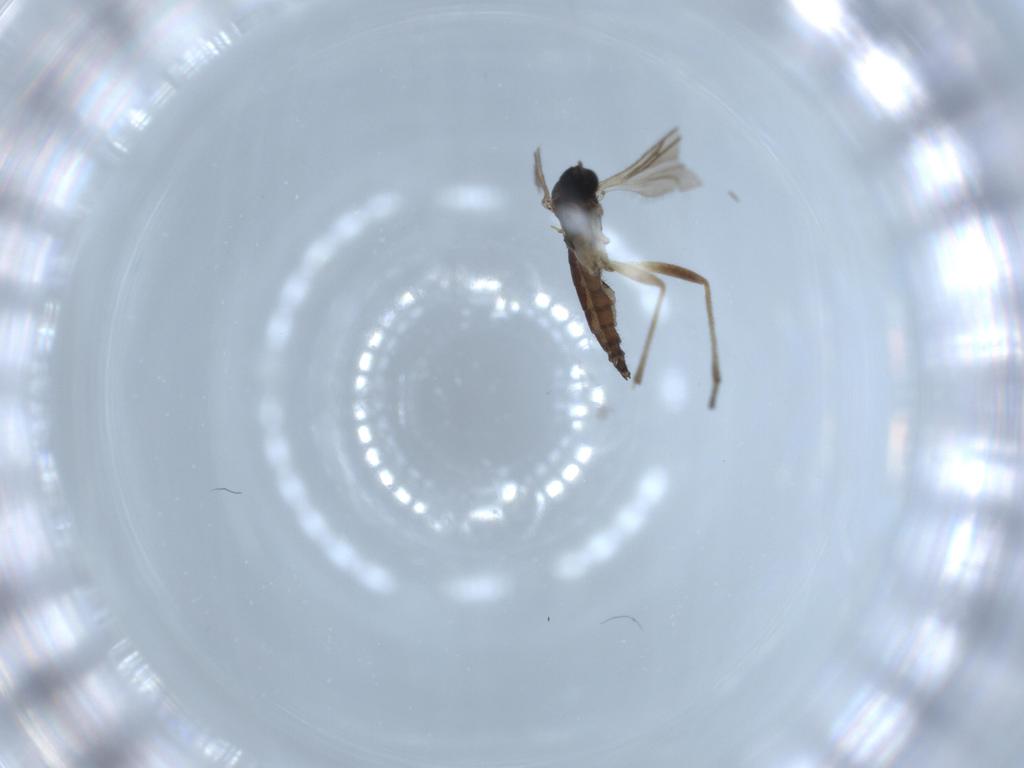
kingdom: Animalia
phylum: Arthropoda
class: Insecta
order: Diptera
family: Sciaridae
